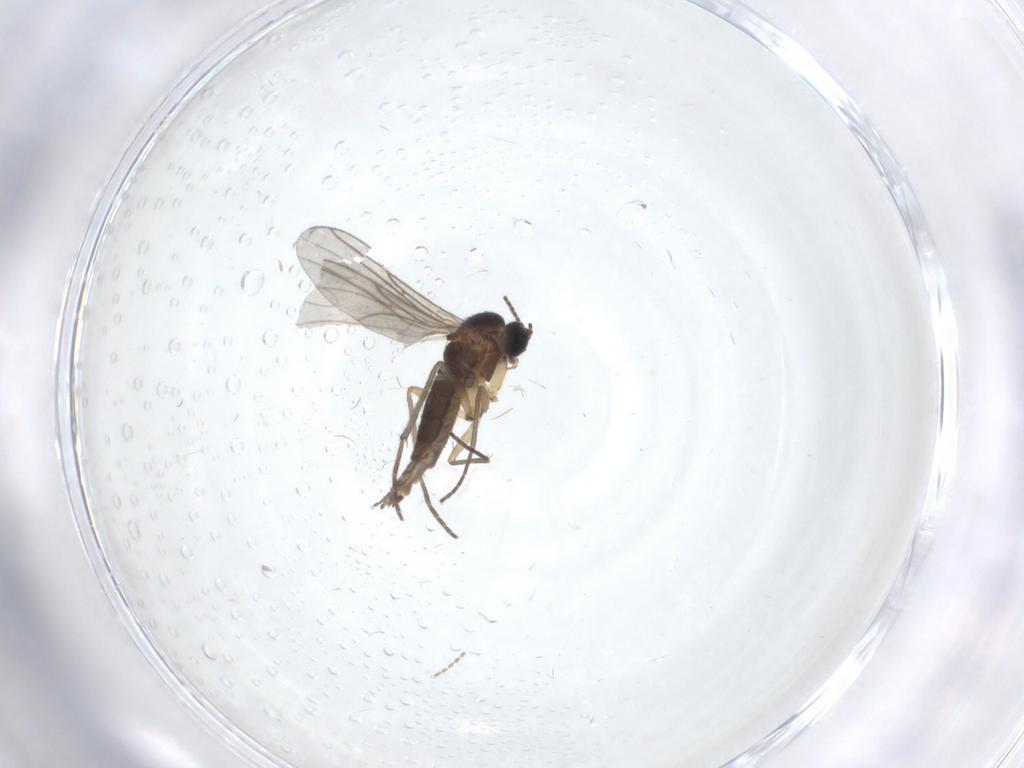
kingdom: Animalia
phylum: Arthropoda
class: Insecta
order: Diptera
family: Sciaridae
